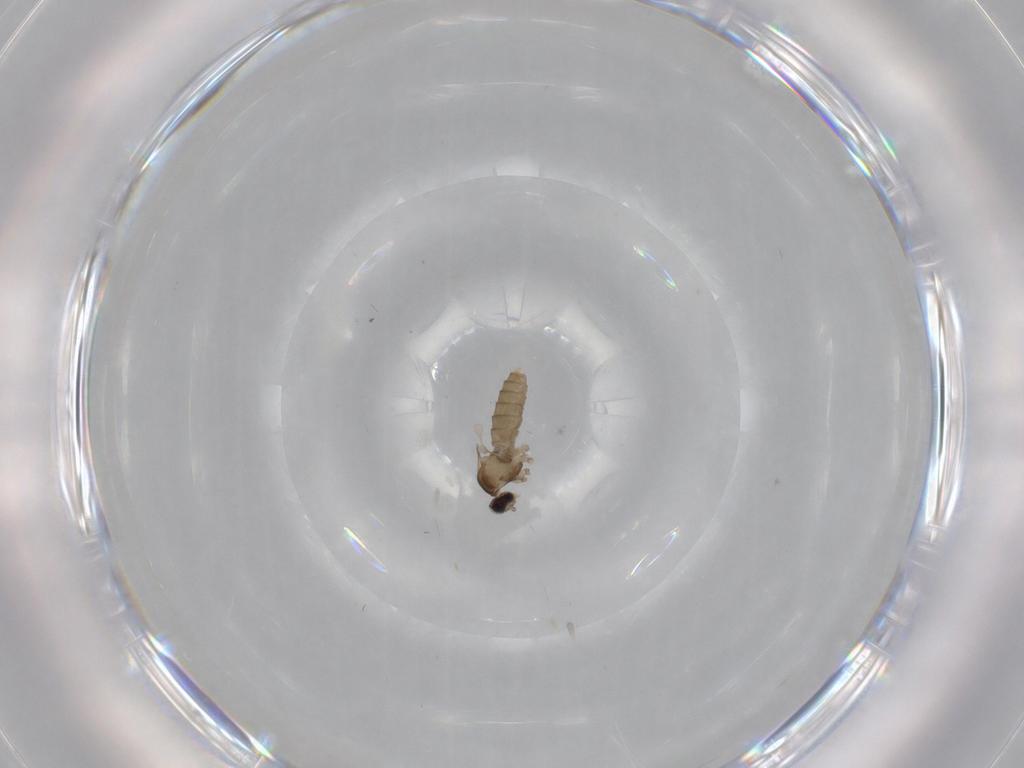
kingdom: Animalia
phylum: Arthropoda
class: Insecta
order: Diptera
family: Cecidomyiidae
